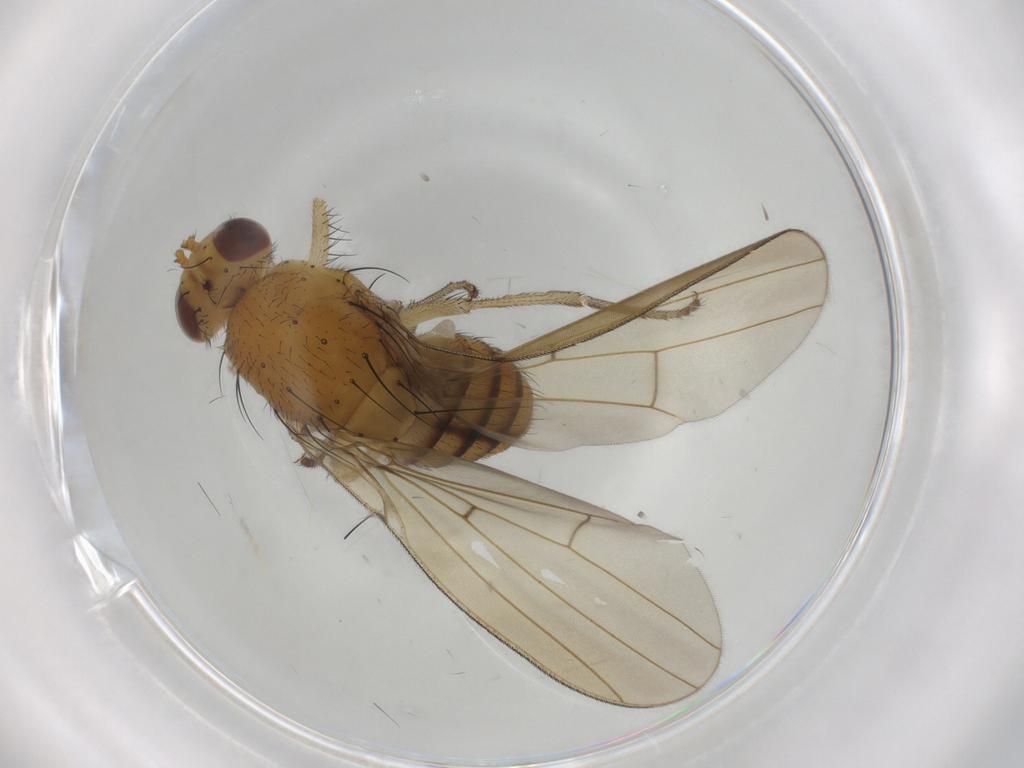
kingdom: Animalia
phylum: Arthropoda
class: Insecta
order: Diptera
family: Lauxaniidae
